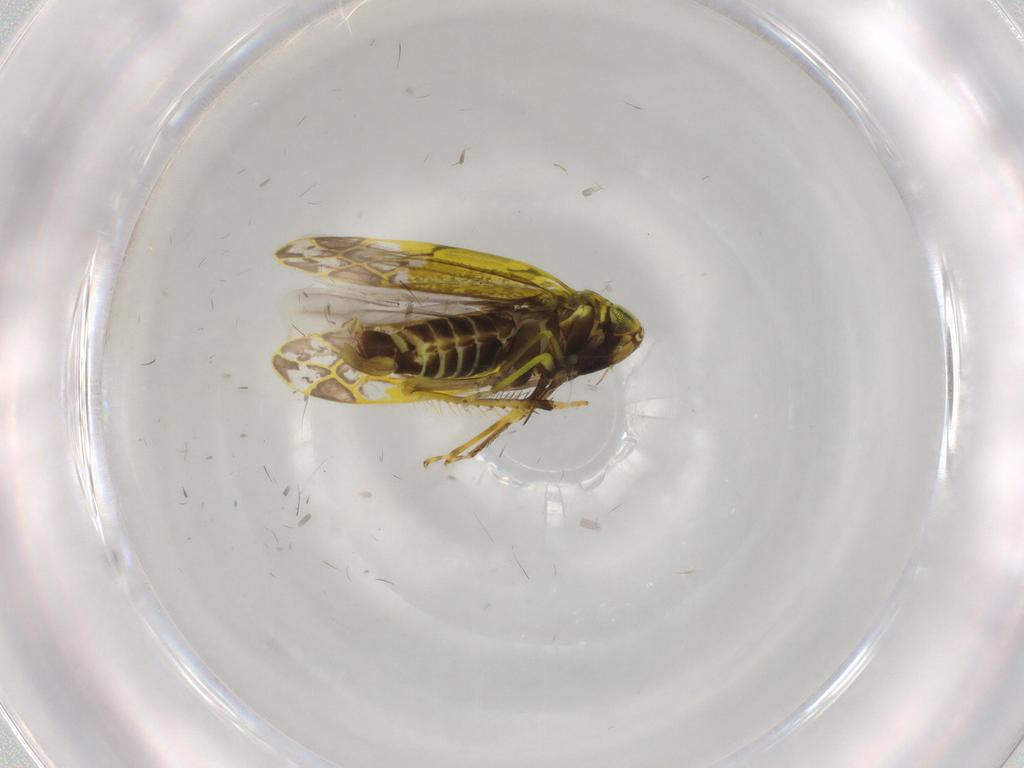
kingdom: Animalia
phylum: Arthropoda
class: Insecta
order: Hemiptera
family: Cicadellidae
